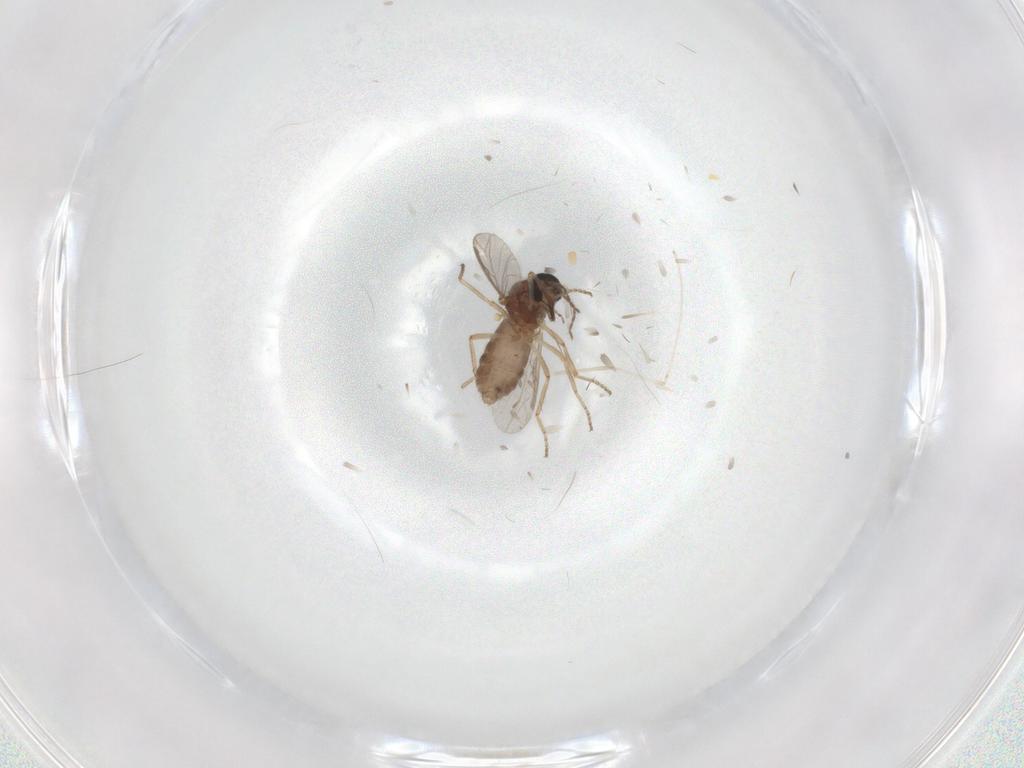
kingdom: Animalia
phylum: Arthropoda
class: Insecta
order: Diptera
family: Ceratopogonidae
